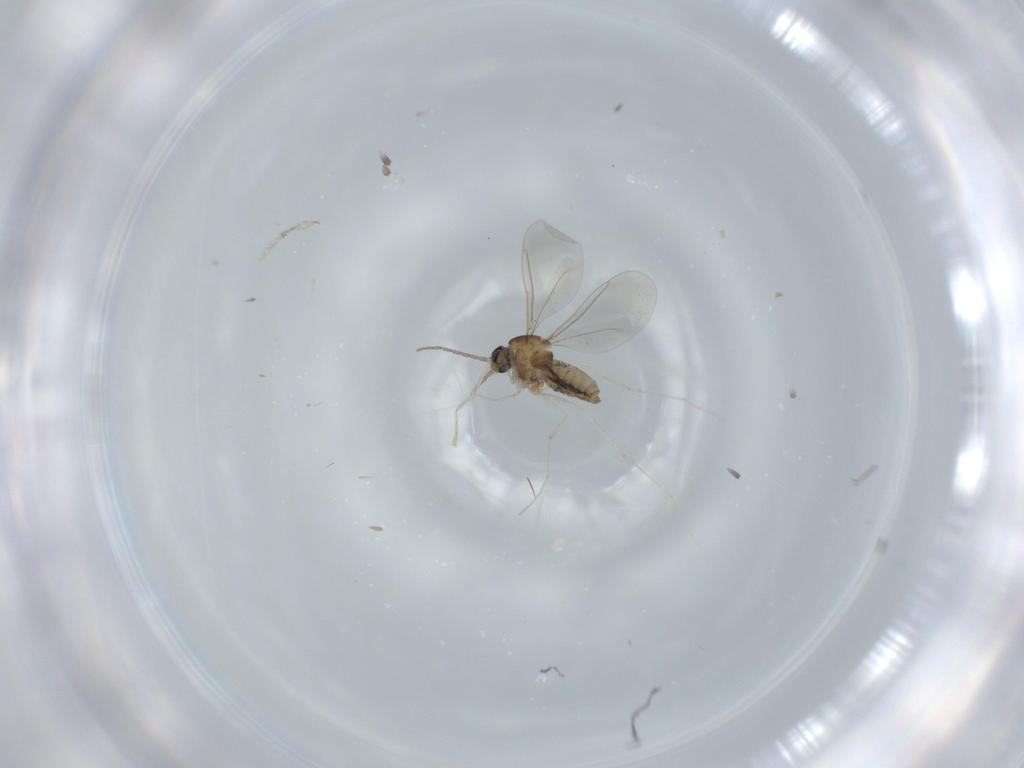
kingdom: Animalia
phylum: Arthropoda
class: Insecta
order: Diptera
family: Cecidomyiidae
